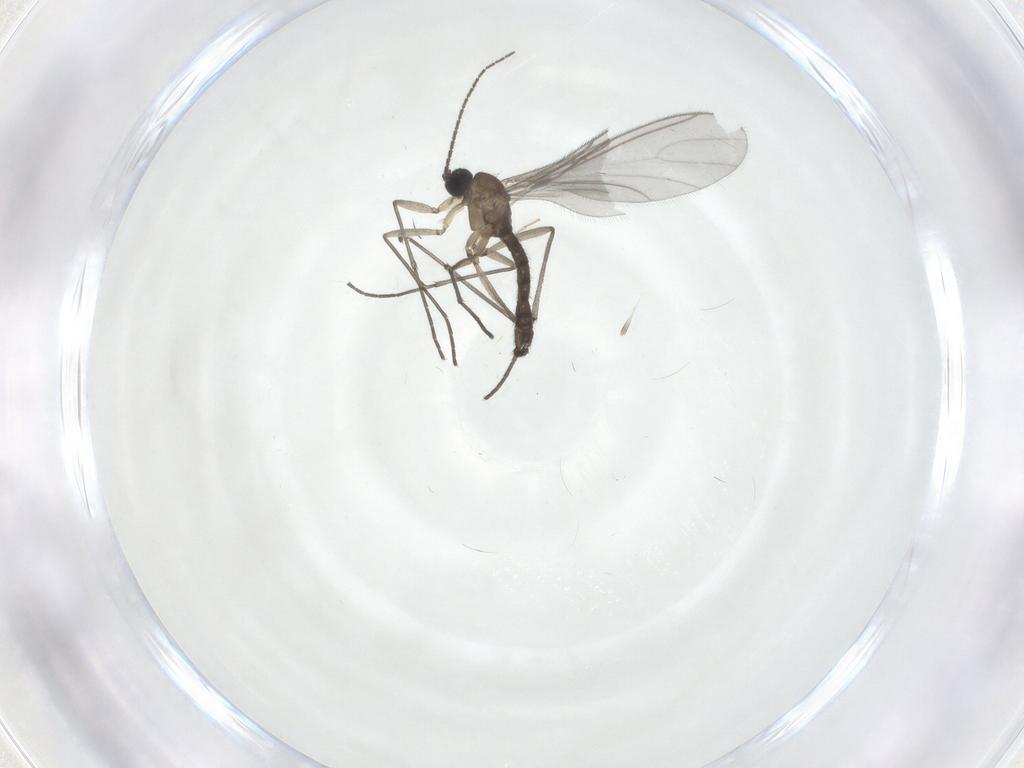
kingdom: Animalia
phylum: Arthropoda
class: Insecta
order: Diptera
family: Sciaridae
